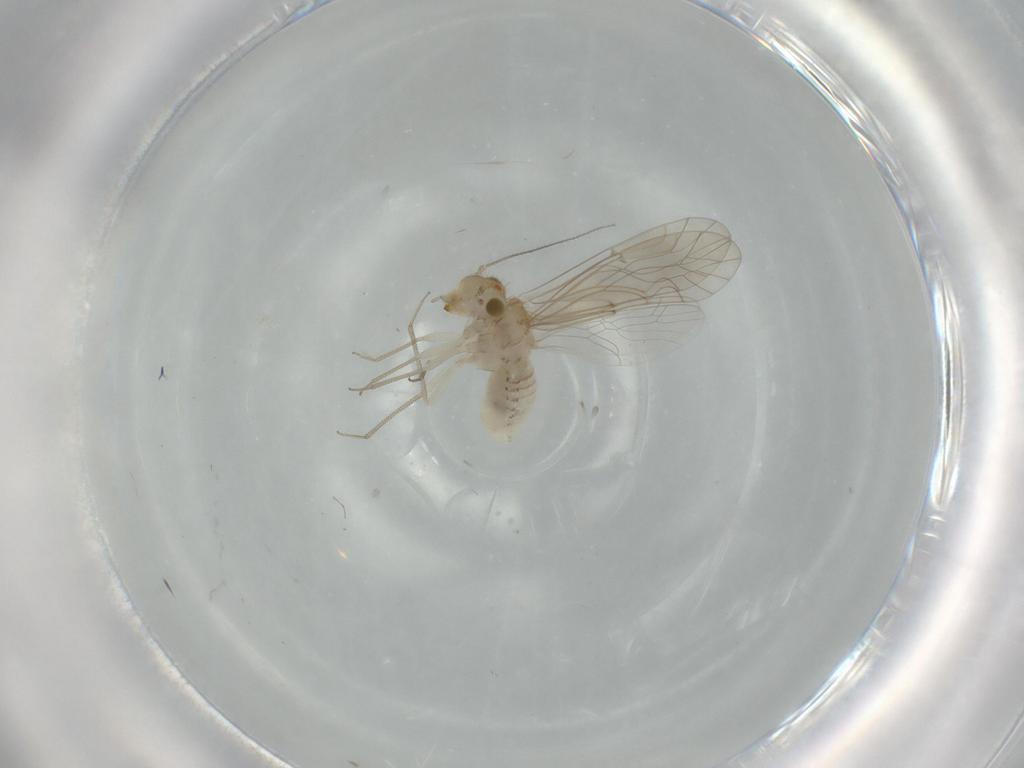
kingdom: Animalia
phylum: Arthropoda
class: Insecta
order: Psocodea
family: Lachesillidae
